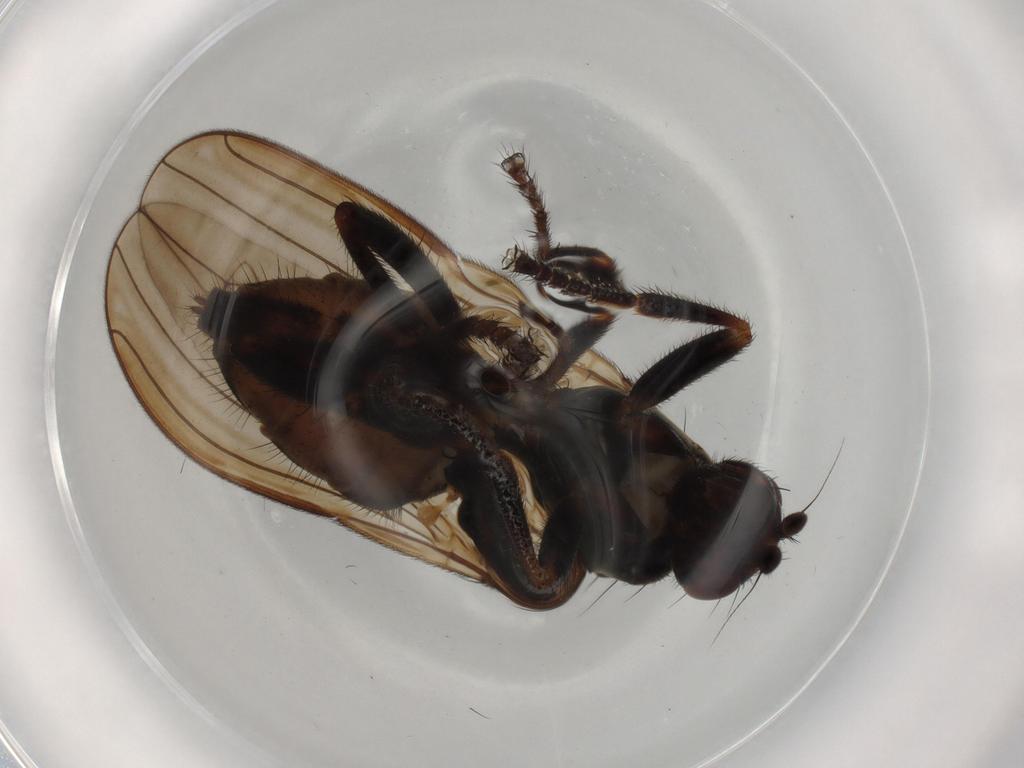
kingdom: Animalia
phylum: Arthropoda
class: Insecta
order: Diptera
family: Sphaeroceridae
